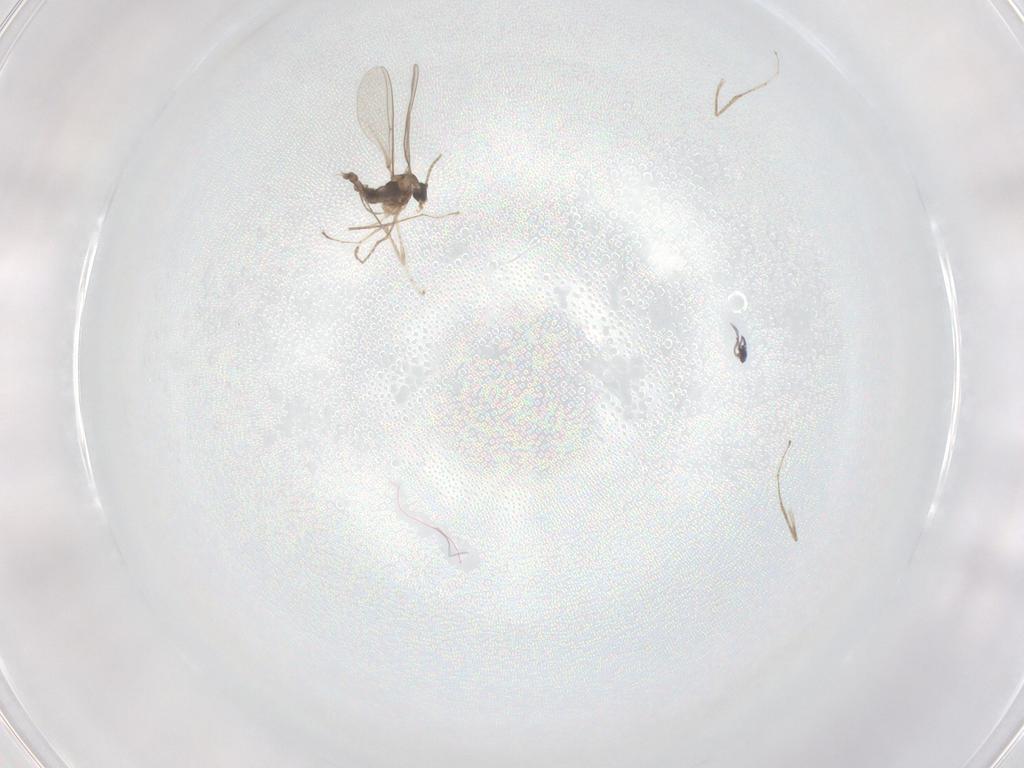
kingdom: Animalia
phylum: Arthropoda
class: Insecta
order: Diptera
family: Cecidomyiidae
